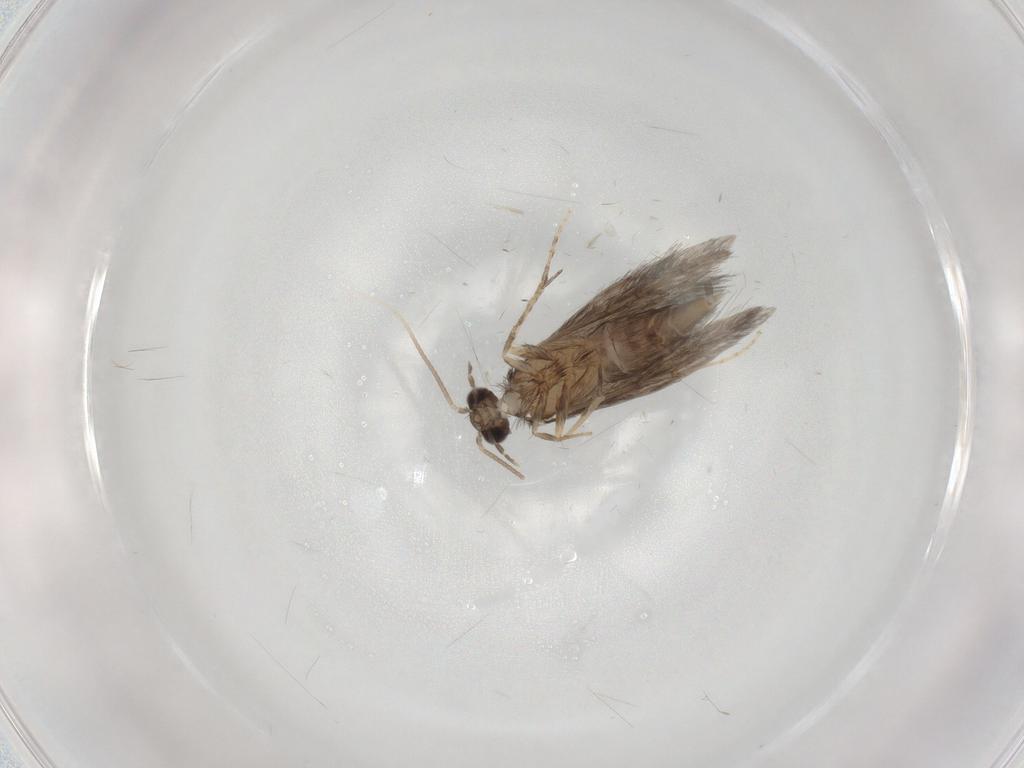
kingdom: Animalia
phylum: Arthropoda
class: Insecta
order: Trichoptera
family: Hydroptilidae
